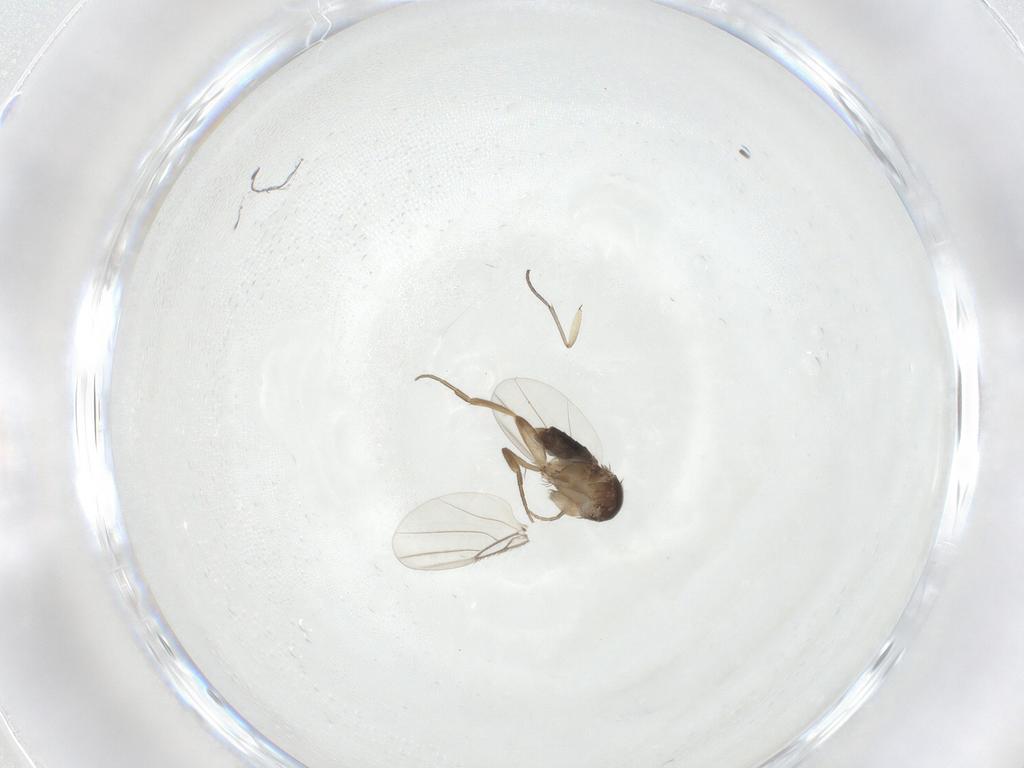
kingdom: Animalia
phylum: Arthropoda
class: Insecta
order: Diptera
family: Phoridae
